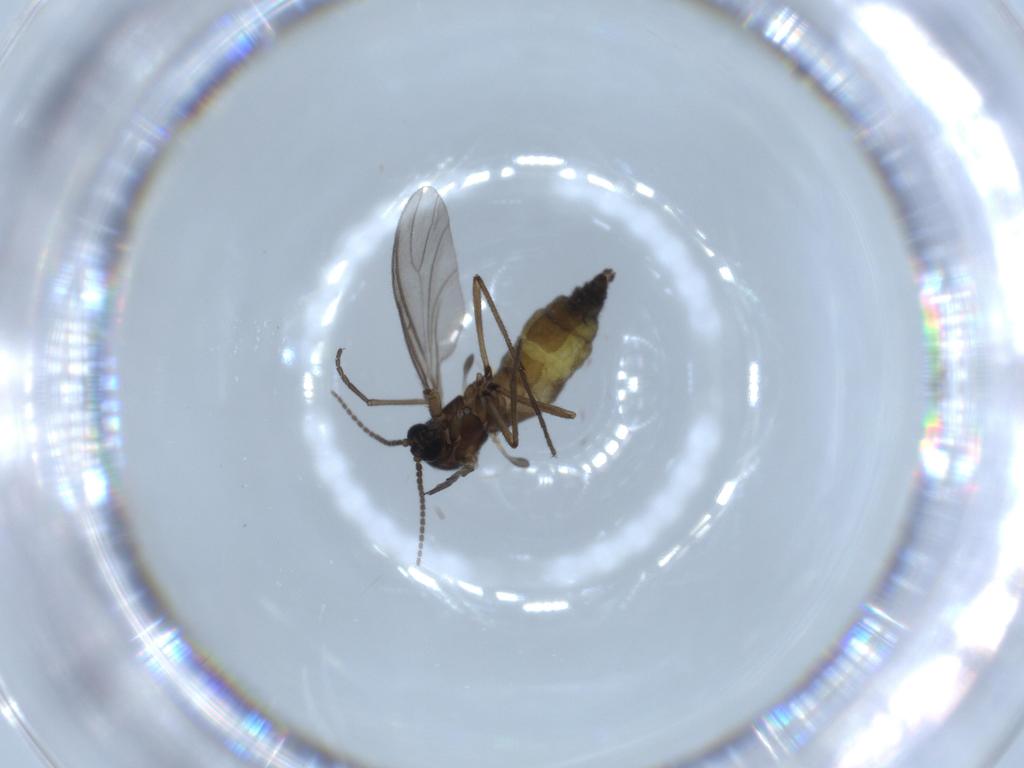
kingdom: Animalia
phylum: Arthropoda
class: Insecta
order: Diptera
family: Sciaridae
